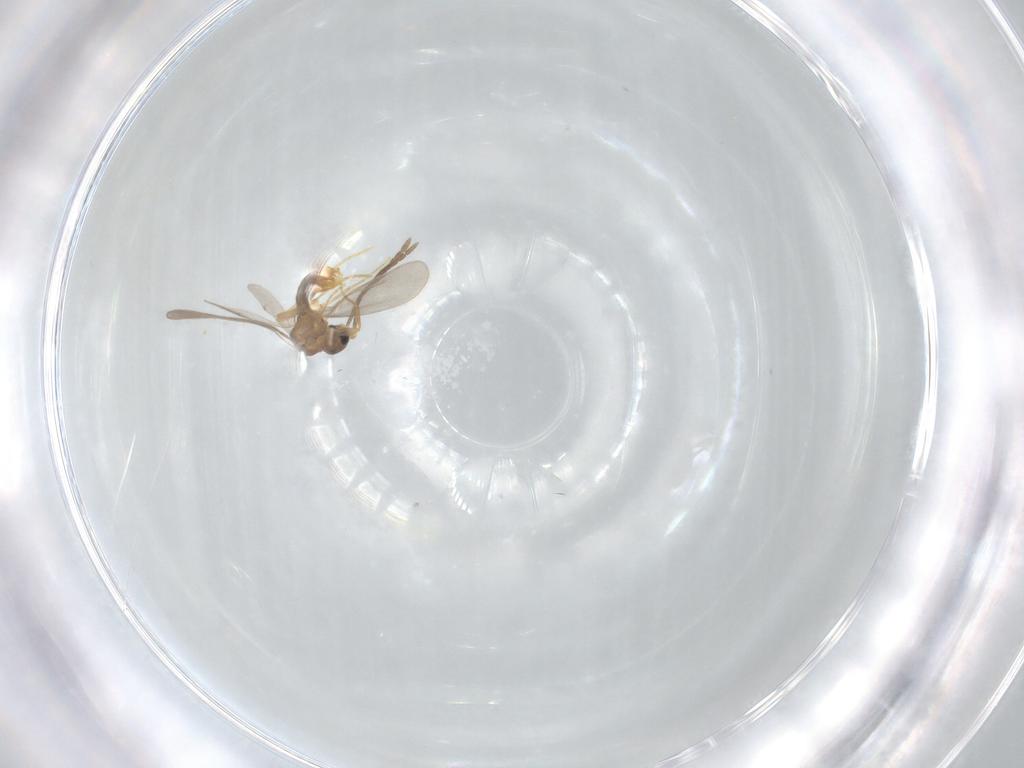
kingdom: Animalia
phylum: Arthropoda
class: Insecta
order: Hymenoptera
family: Formicidae
